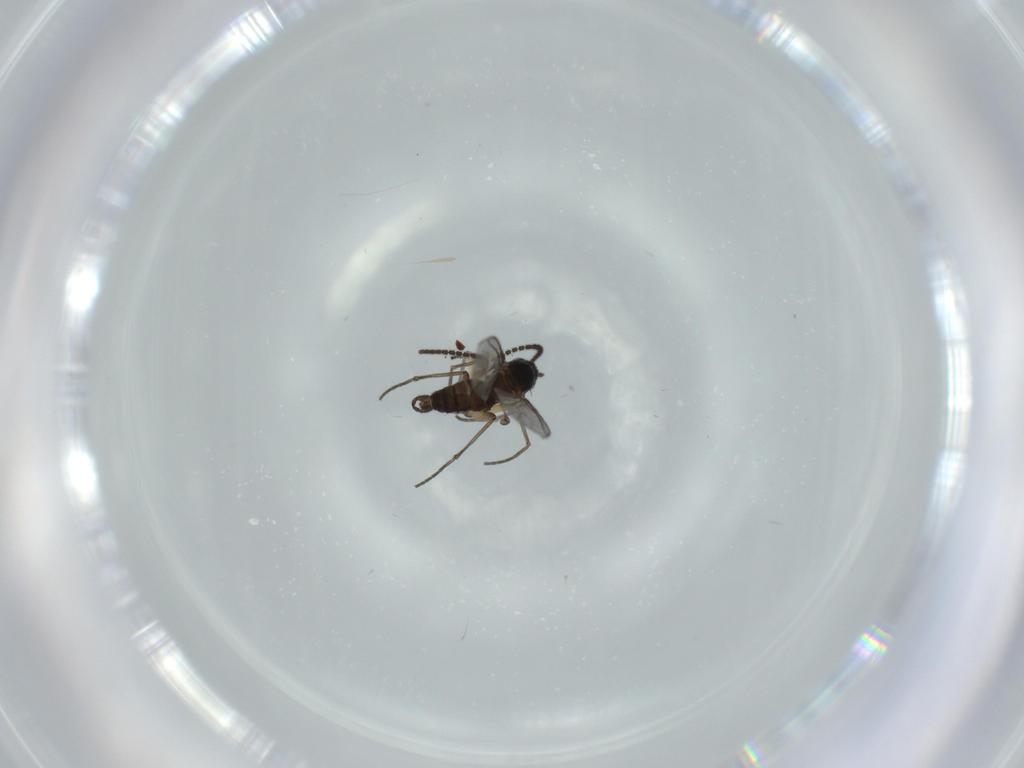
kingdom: Animalia
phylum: Arthropoda
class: Insecta
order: Diptera
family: Sciaridae
